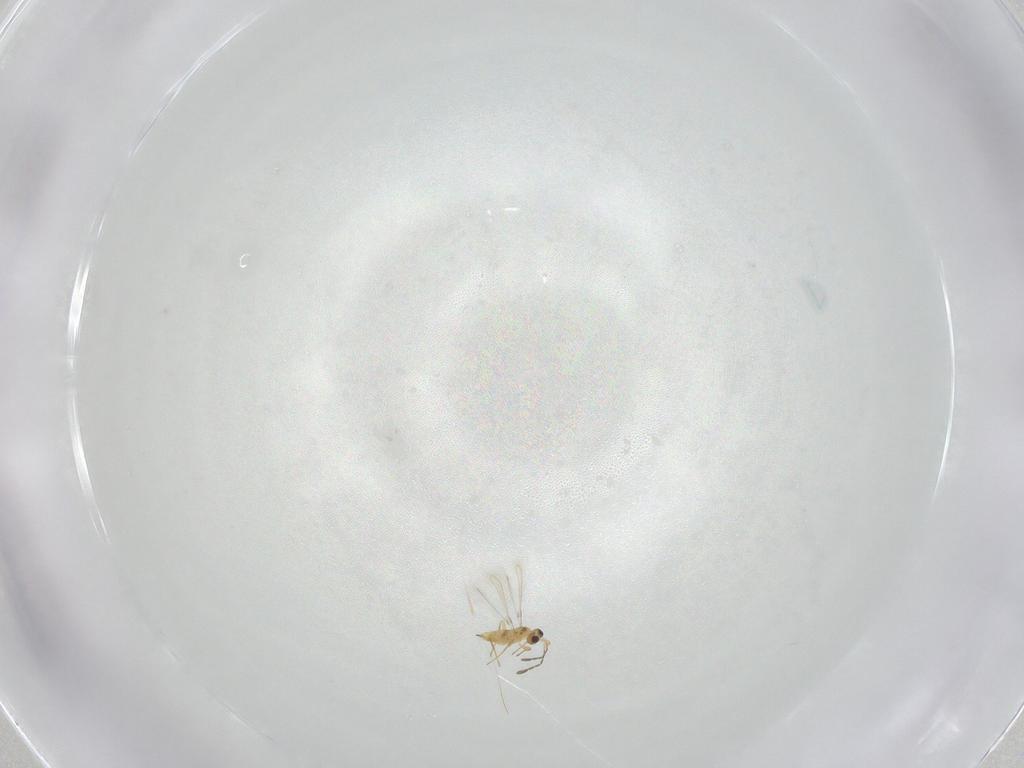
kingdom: Animalia
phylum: Arthropoda
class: Insecta
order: Hymenoptera
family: Mymaridae
